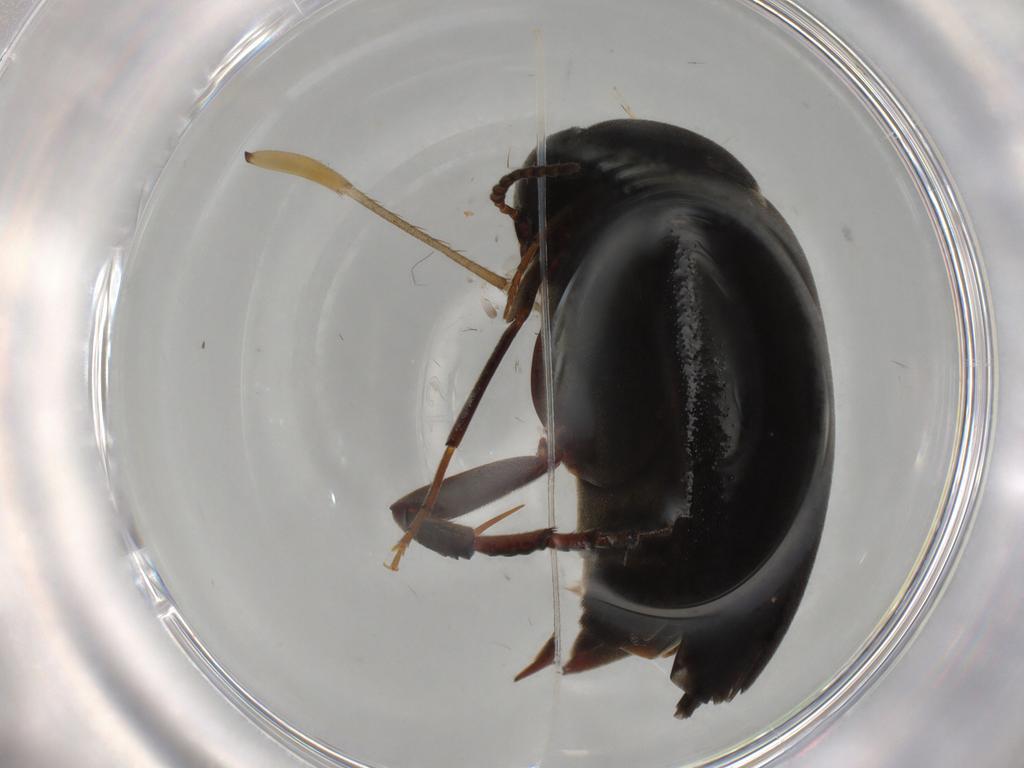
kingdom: Animalia
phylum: Arthropoda
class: Insecta
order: Coleoptera
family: Mordellidae
